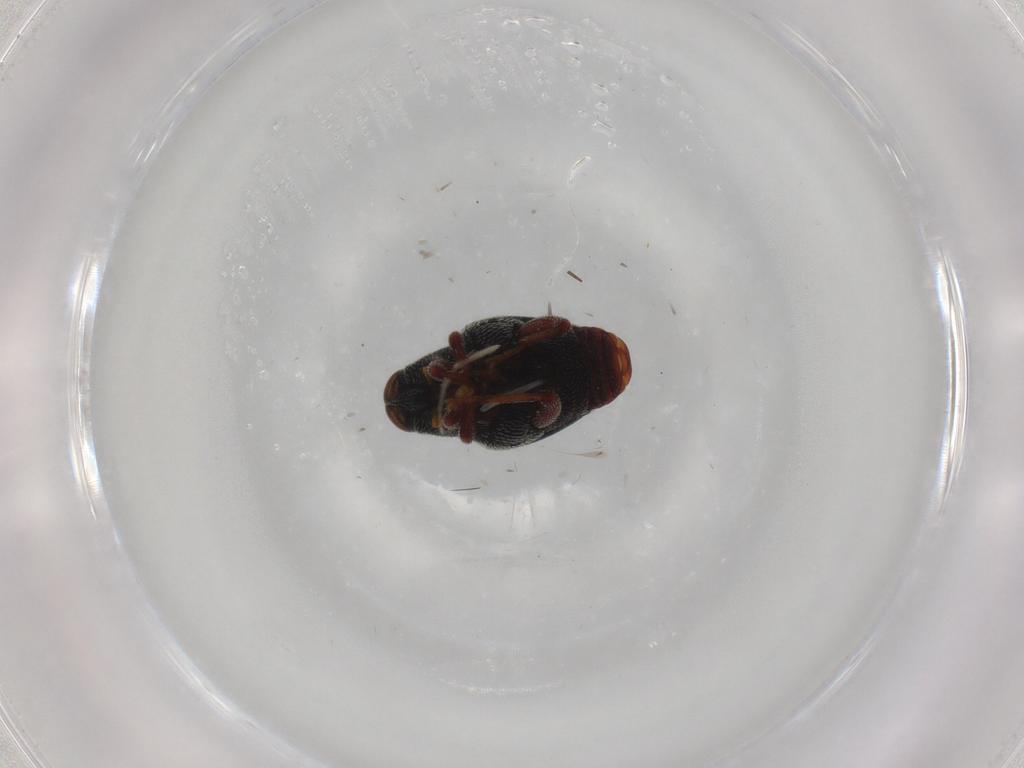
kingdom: Animalia
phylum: Arthropoda
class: Insecta
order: Coleoptera
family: Curculionidae
